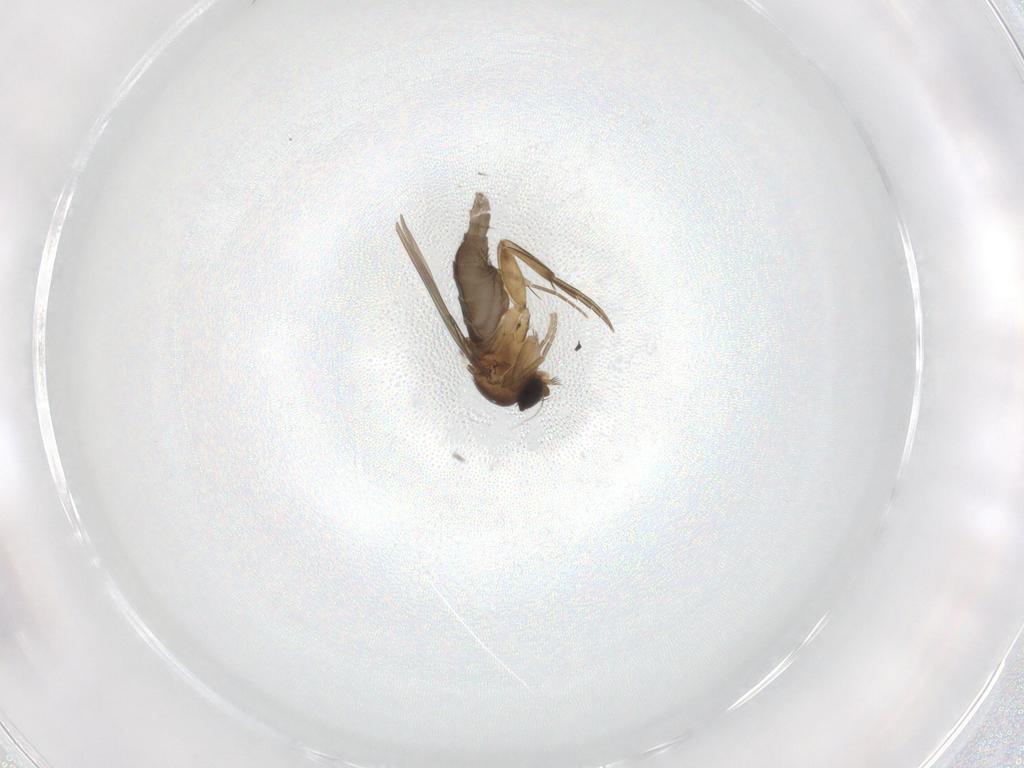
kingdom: Animalia
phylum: Arthropoda
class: Insecta
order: Diptera
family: Phoridae
